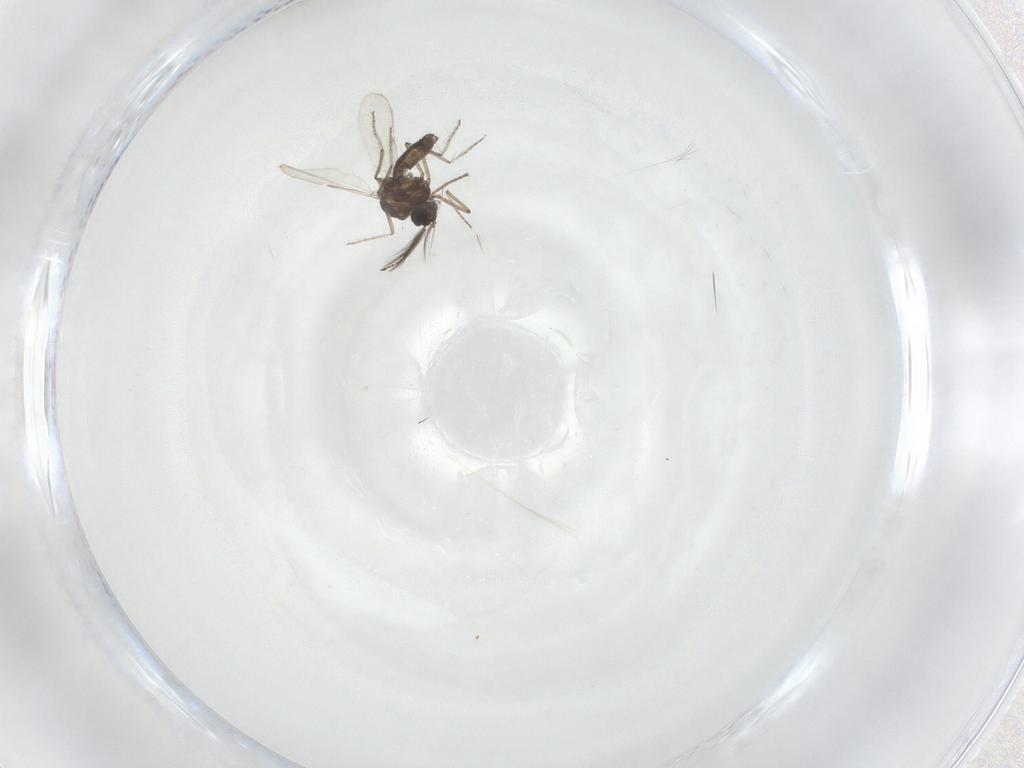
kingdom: Animalia
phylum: Arthropoda
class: Insecta
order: Diptera
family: Ceratopogonidae
